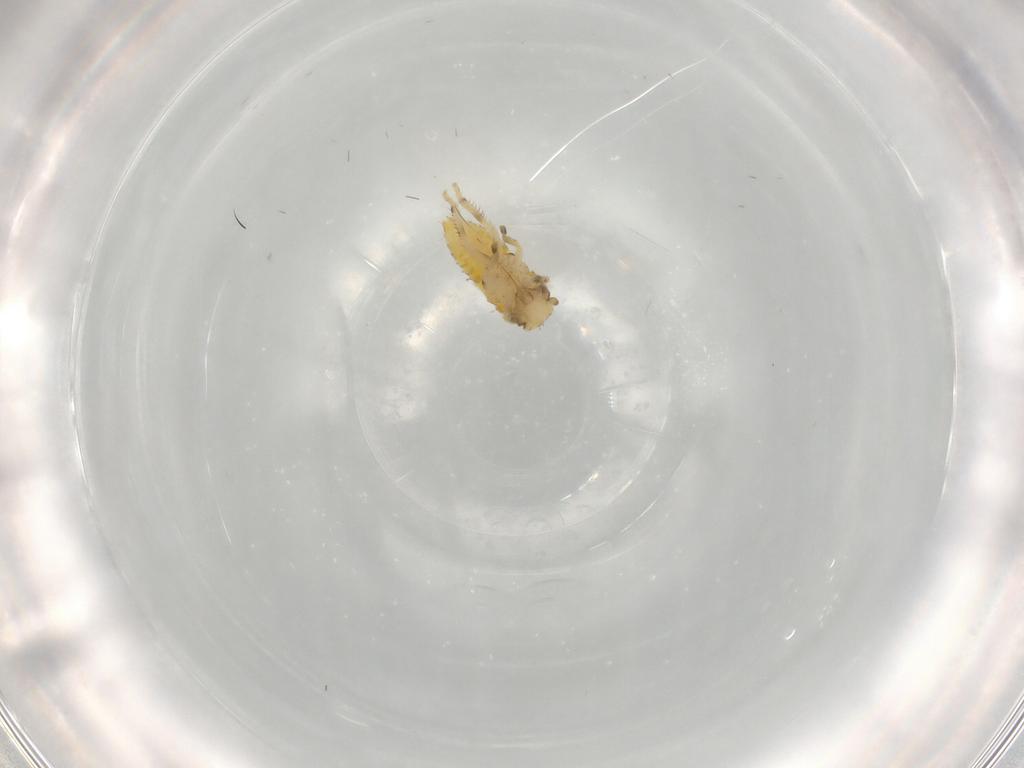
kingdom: Animalia
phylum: Arthropoda
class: Insecta
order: Hemiptera
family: Cicadellidae
